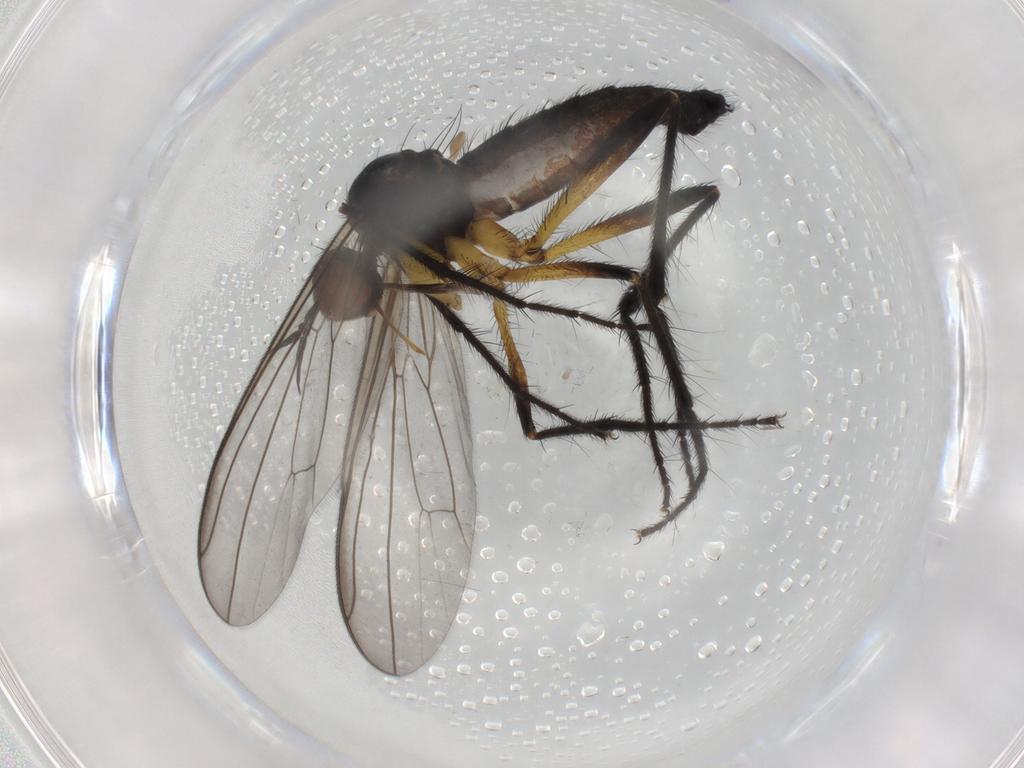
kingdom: Animalia
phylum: Arthropoda
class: Insecta
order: Diptera
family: Empididae
